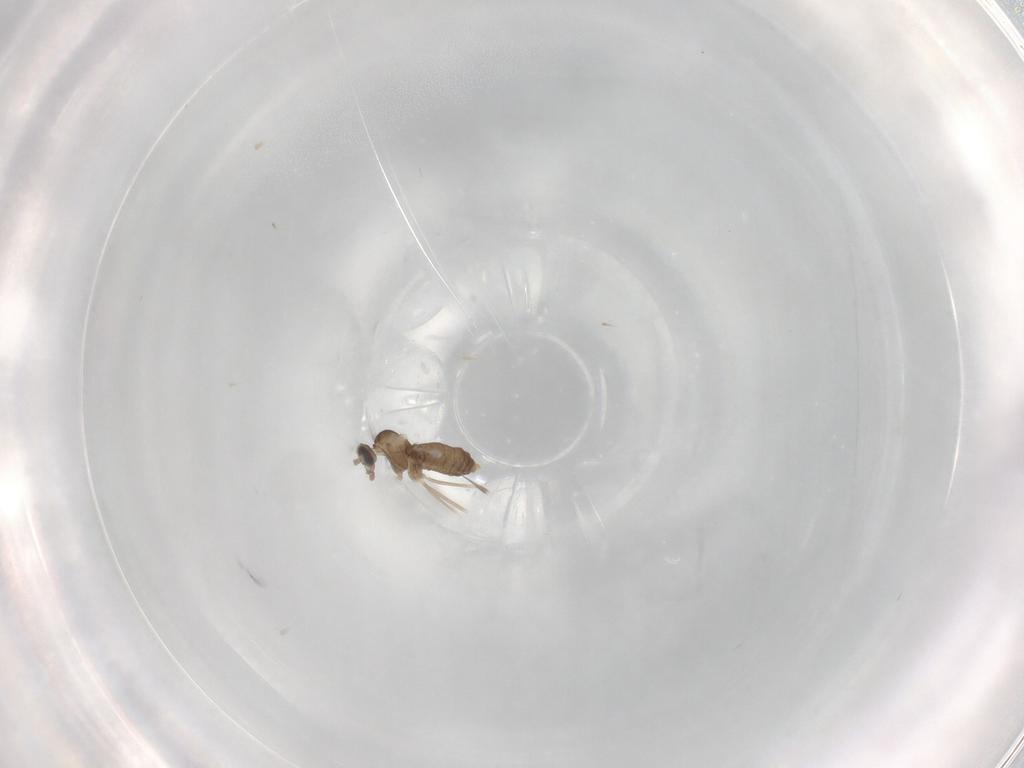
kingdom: Animalia
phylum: Arthropoda
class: Insecta
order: Diptera
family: Cecidomyiidae
